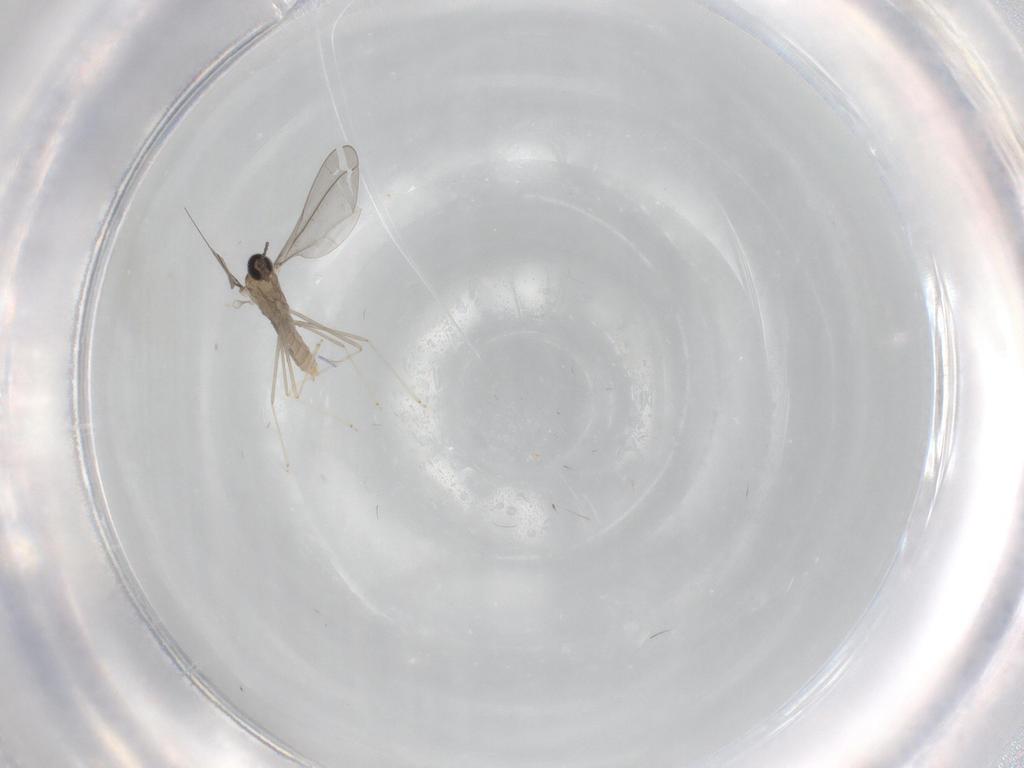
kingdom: Animalia
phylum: Arthropoda
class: Insecta
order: Diptera
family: Cecidomyiidae
